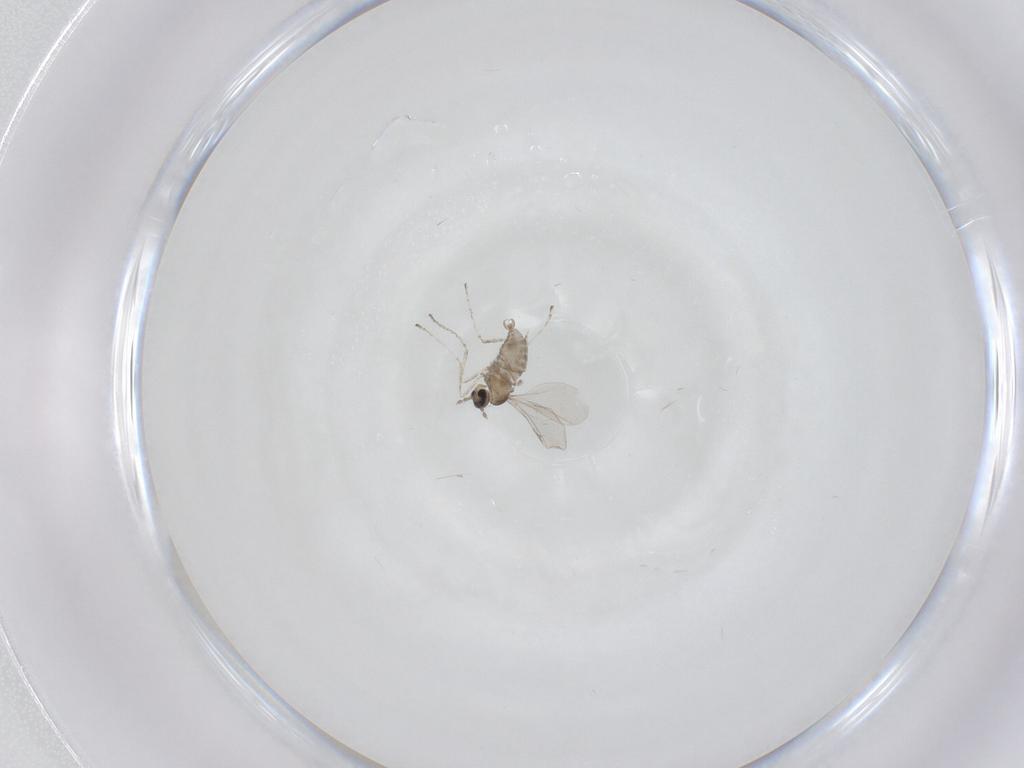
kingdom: Animalia
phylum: Arthropoda
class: Insecta
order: Diptera
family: Cecidomyiidae
